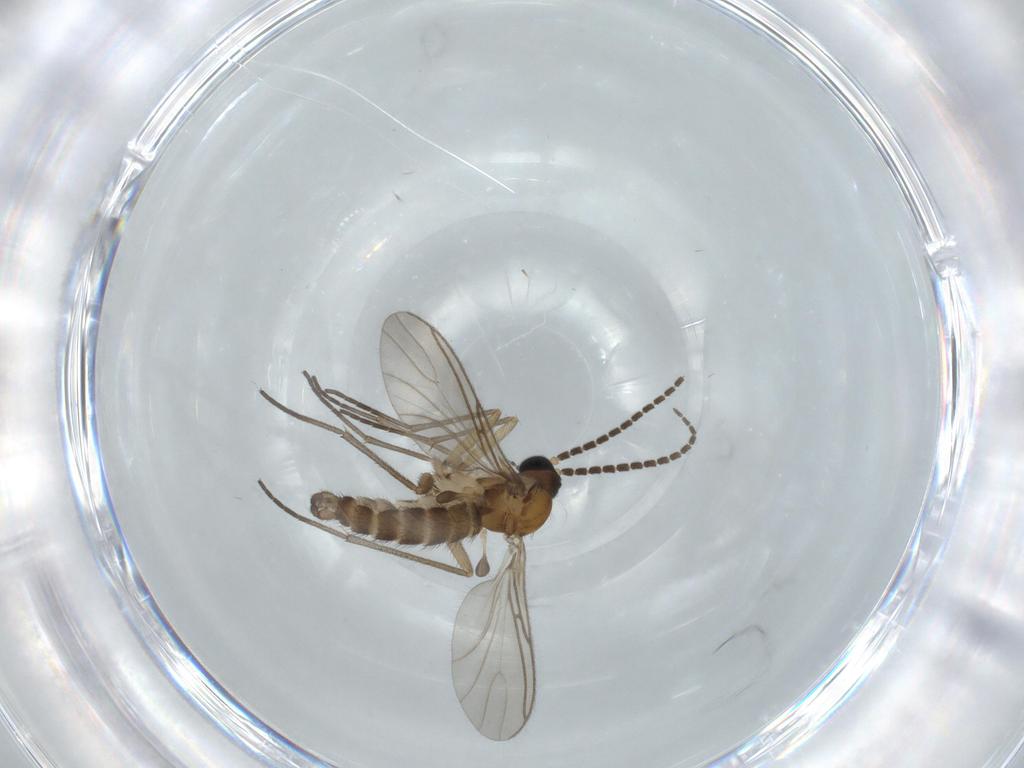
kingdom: Animalia
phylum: Arthropoda
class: Insecta
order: Diptera
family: Sciaridae
